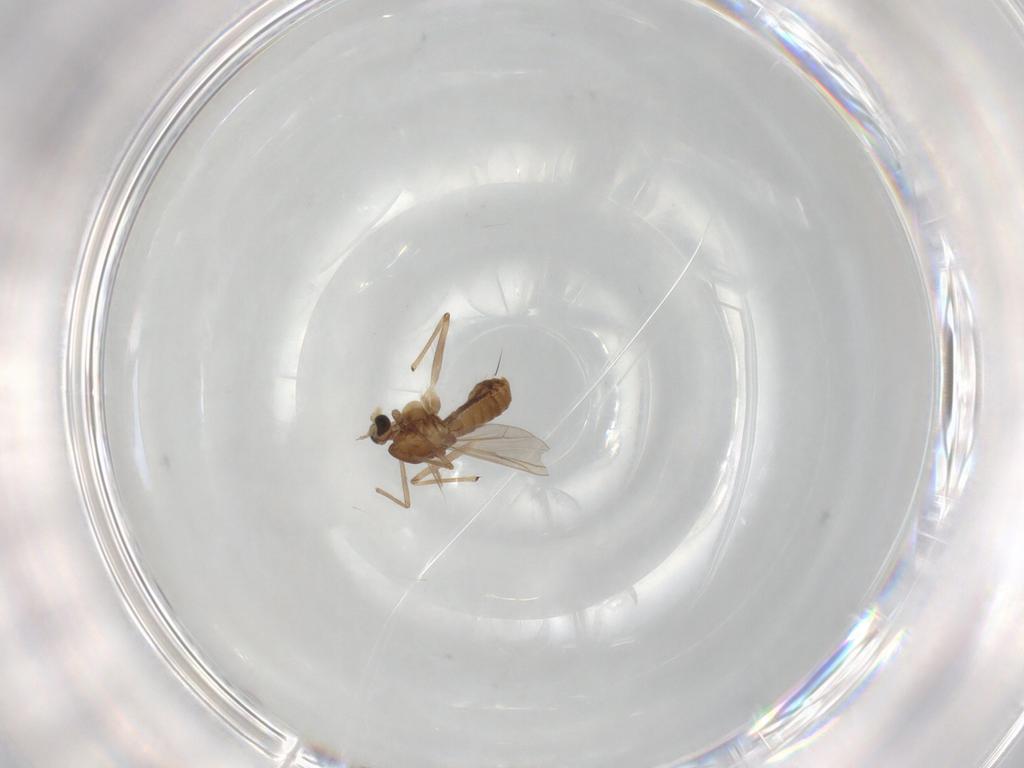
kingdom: Animalia
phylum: Arthropoda
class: Insecta
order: Diptera
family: Chironomidae
